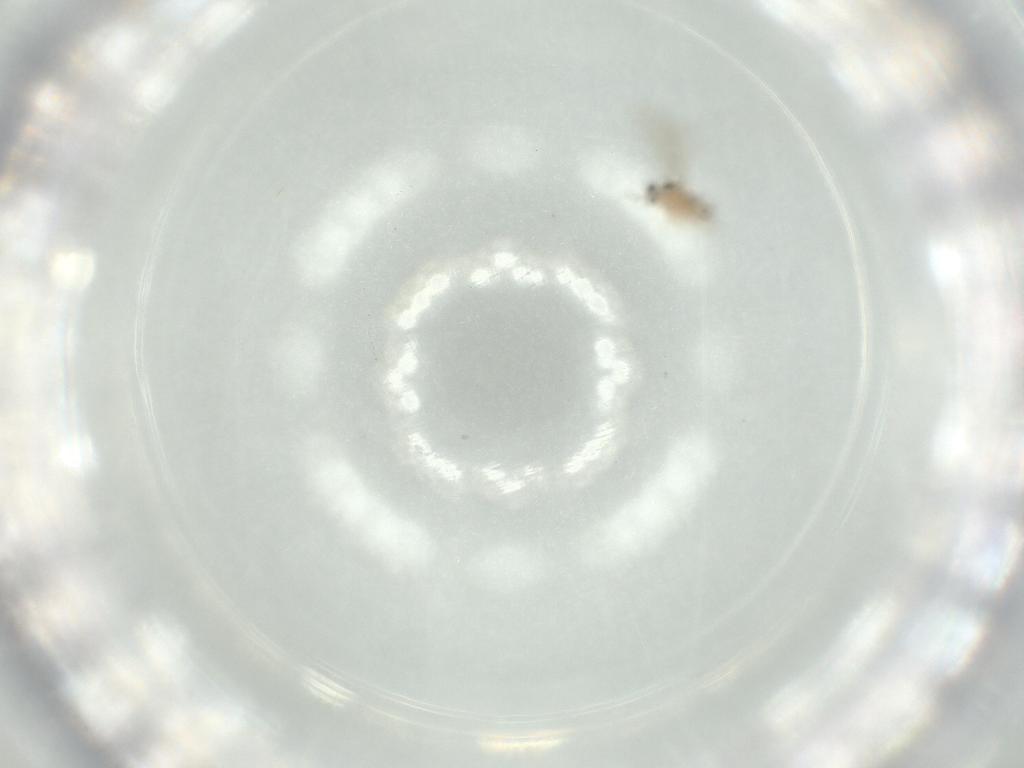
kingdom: Animalia
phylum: Arthropoda
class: Insecta
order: Diptera
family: Cecidomyiidae
